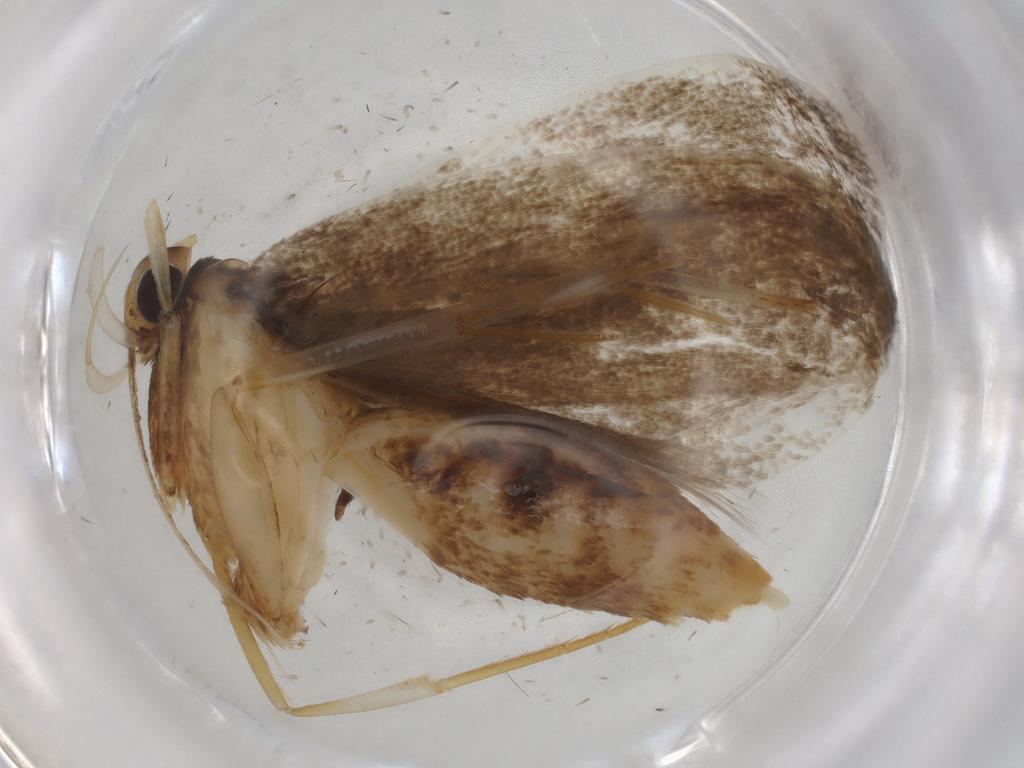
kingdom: Animalia
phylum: Arthropoda
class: Insecta
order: Lepidoptera
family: Lecithoceridae
